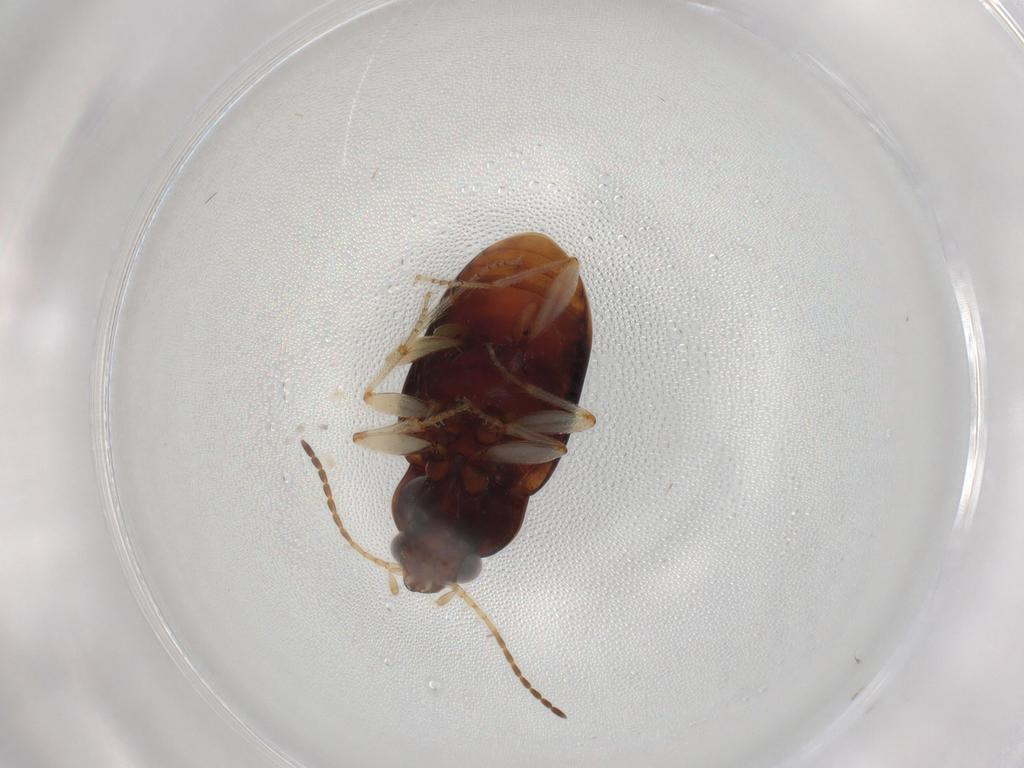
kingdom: Animalia
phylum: Arthropoda
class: Insecta
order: Coleoptera
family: Carabidae
